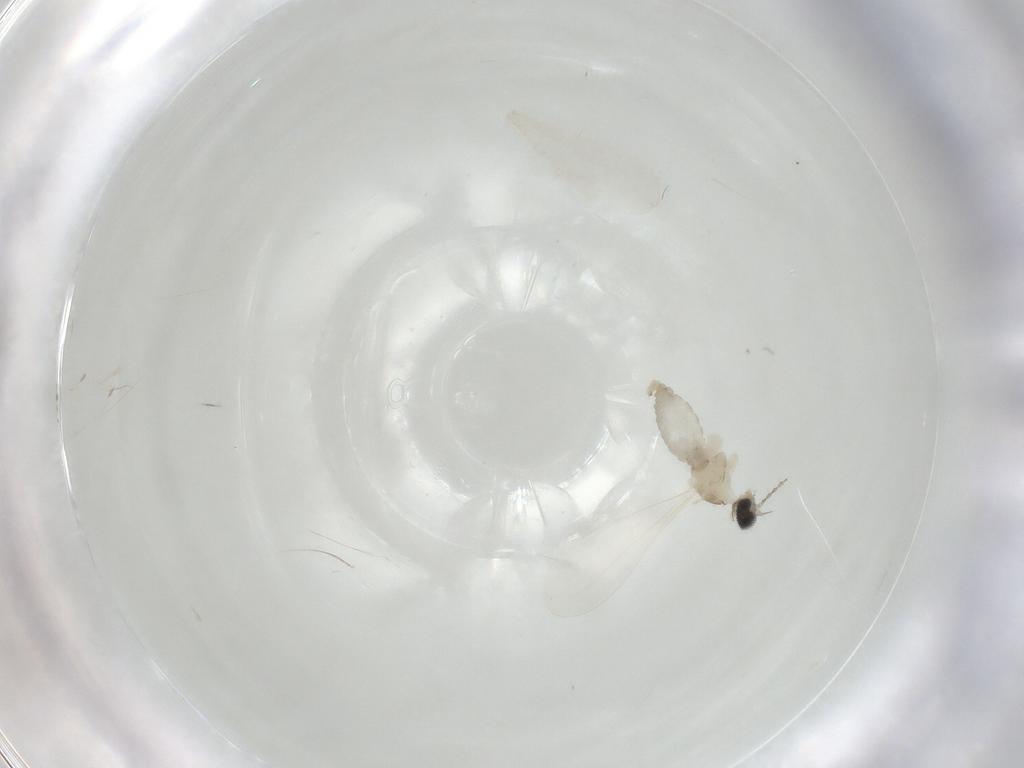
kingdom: Animalia
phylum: Arthropoda
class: Insecta
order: Diptera
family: Cecidomyiidae
